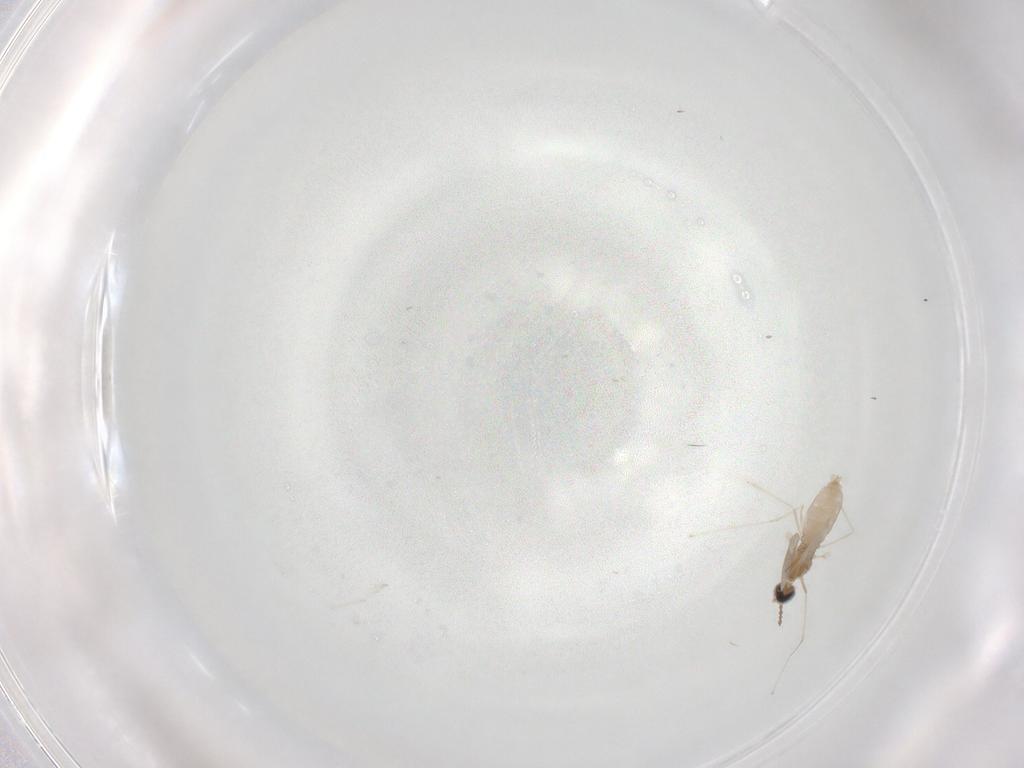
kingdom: Animalia
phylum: Arthropoda
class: Insecta
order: Diptera
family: Cecidomyiidae
